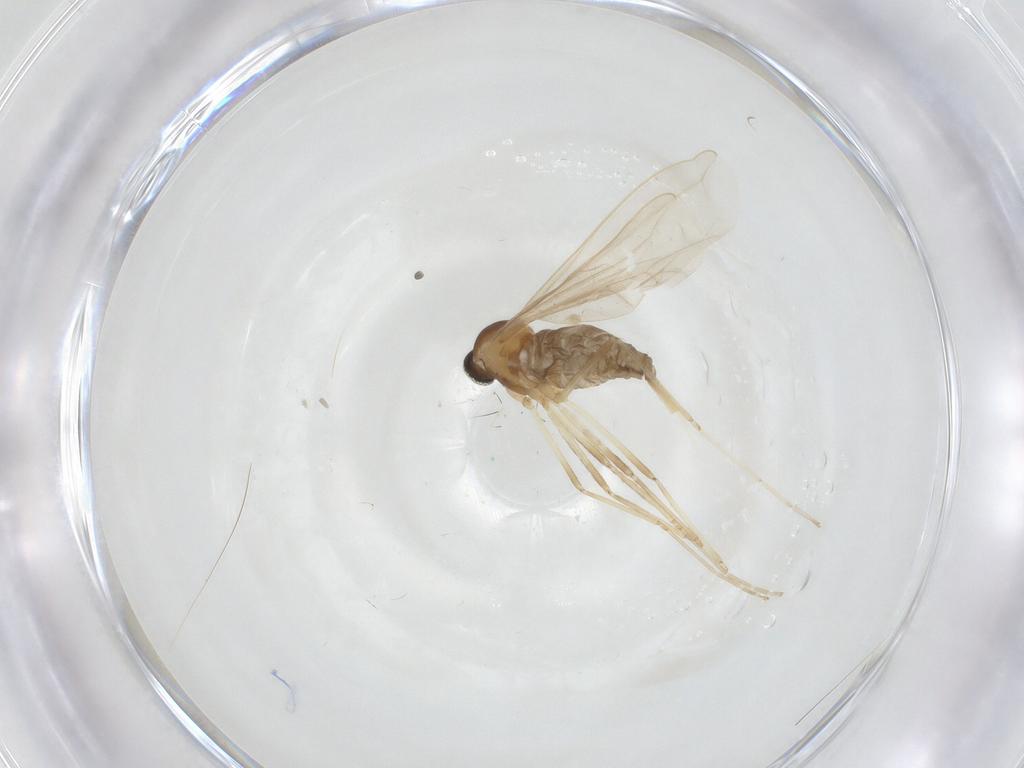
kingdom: Animalia
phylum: Arthropoda
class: Insecta
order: Diptera
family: Cecidomyiidae
